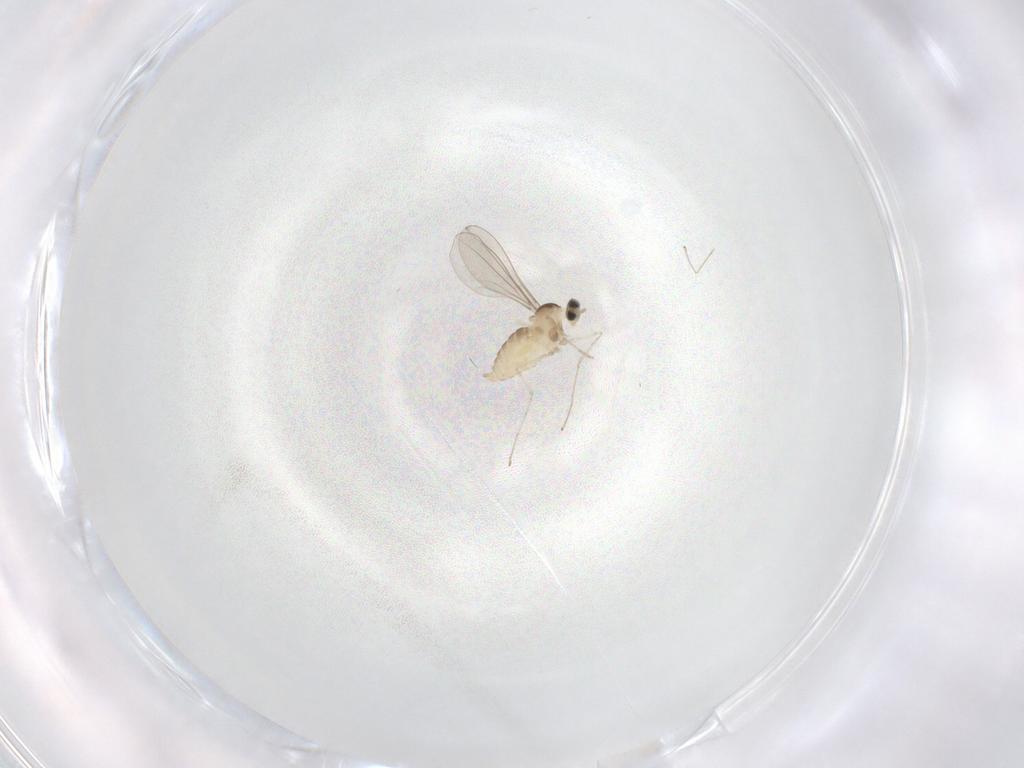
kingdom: Animalia
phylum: Arthropoda
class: Insecta
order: Diptera
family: Cecidomyiidae
